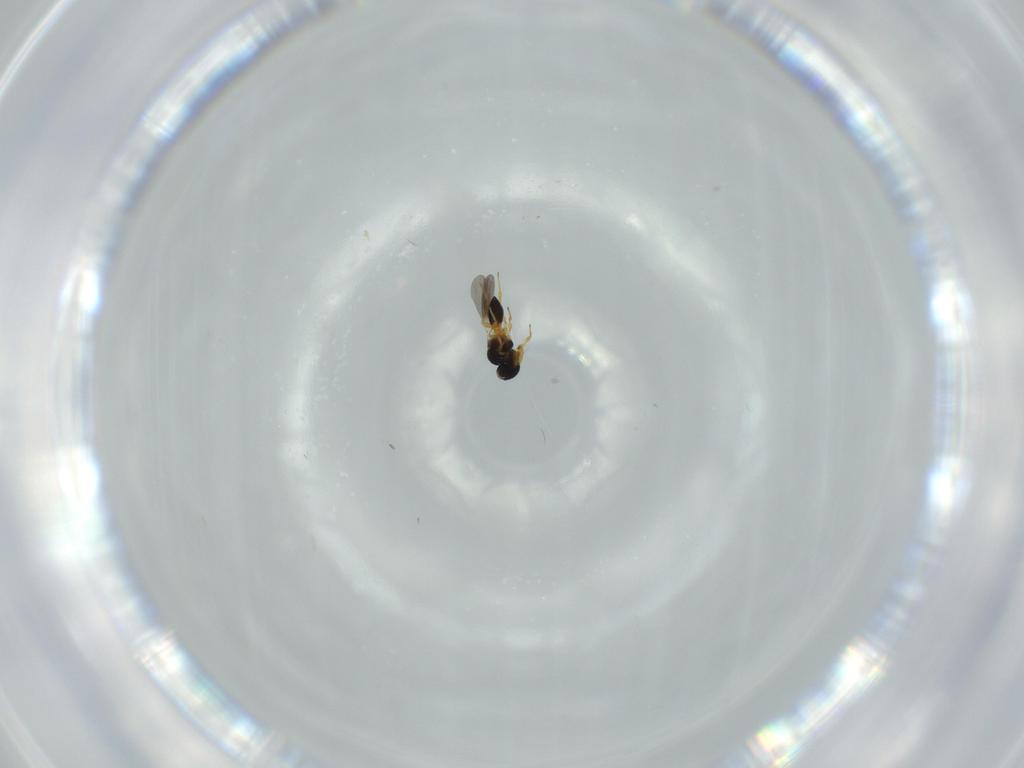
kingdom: Animalia
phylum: Arthropoda
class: Insecta
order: Hymenoptera
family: Platygastridae
